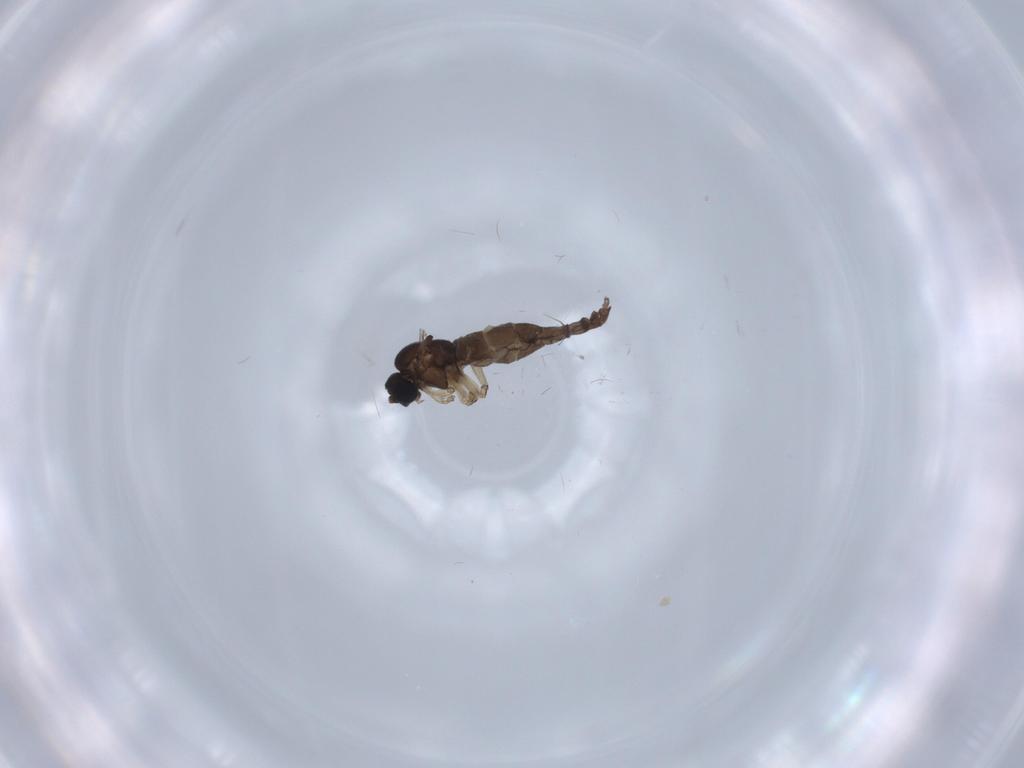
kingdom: Animalia
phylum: Arthropoda
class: Insecta
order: Diptera
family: Sciaridae
